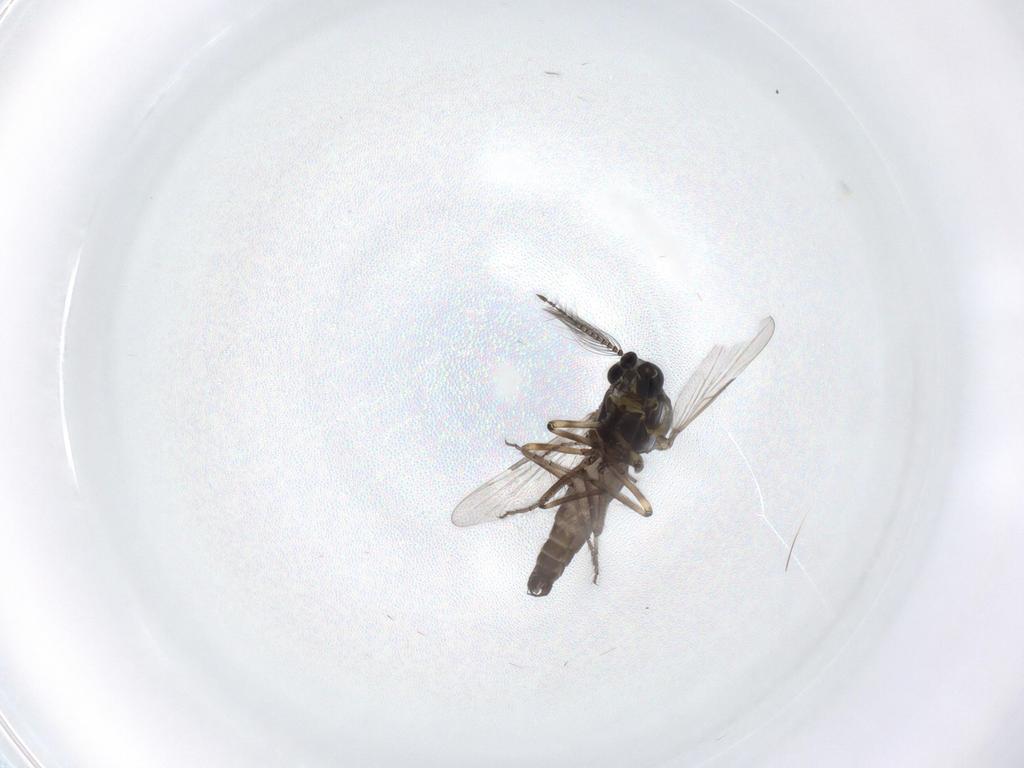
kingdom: Animalia
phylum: Arthropoda
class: Insecta
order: Diptera
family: Ceratopogonidae
